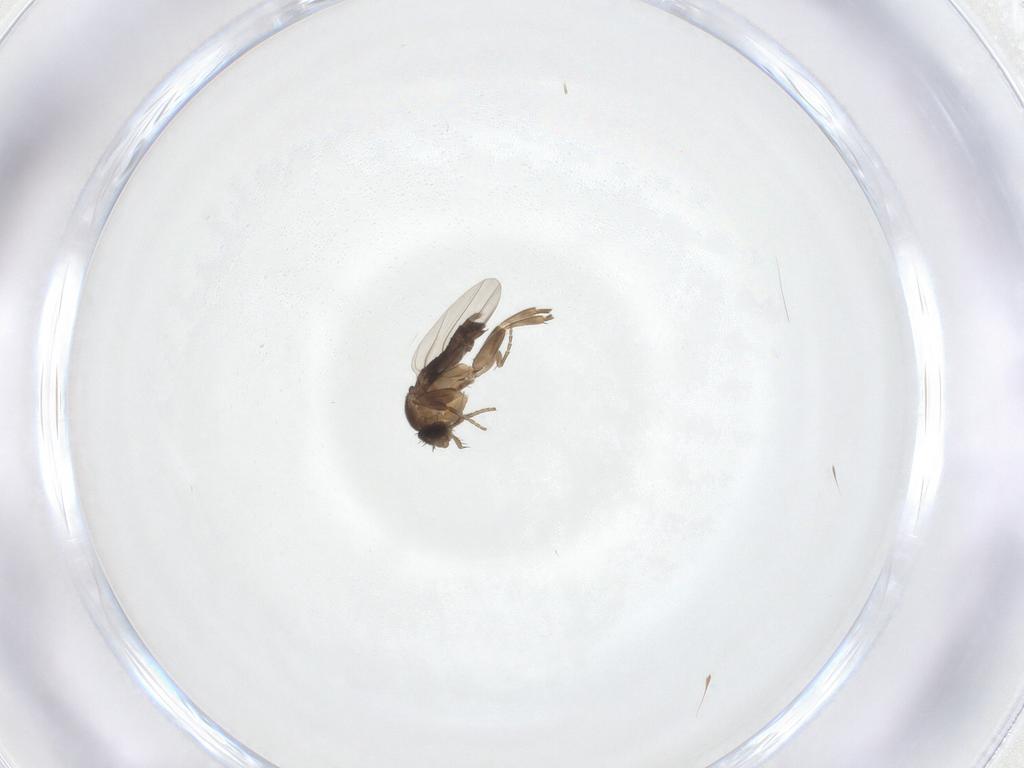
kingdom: Animalia
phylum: Arthropoda
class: Insecta
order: Diptera
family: Phoridae
